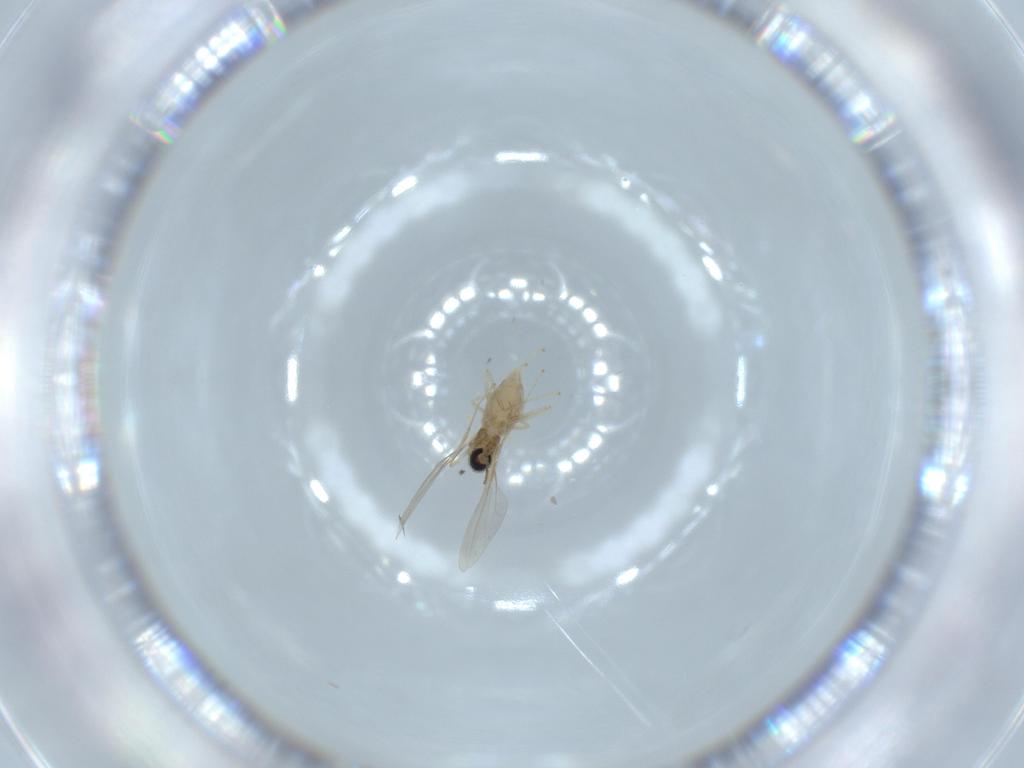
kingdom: Animalia
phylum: Arthropoda
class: Insecta
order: Diptera
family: Cecidomyiidae
